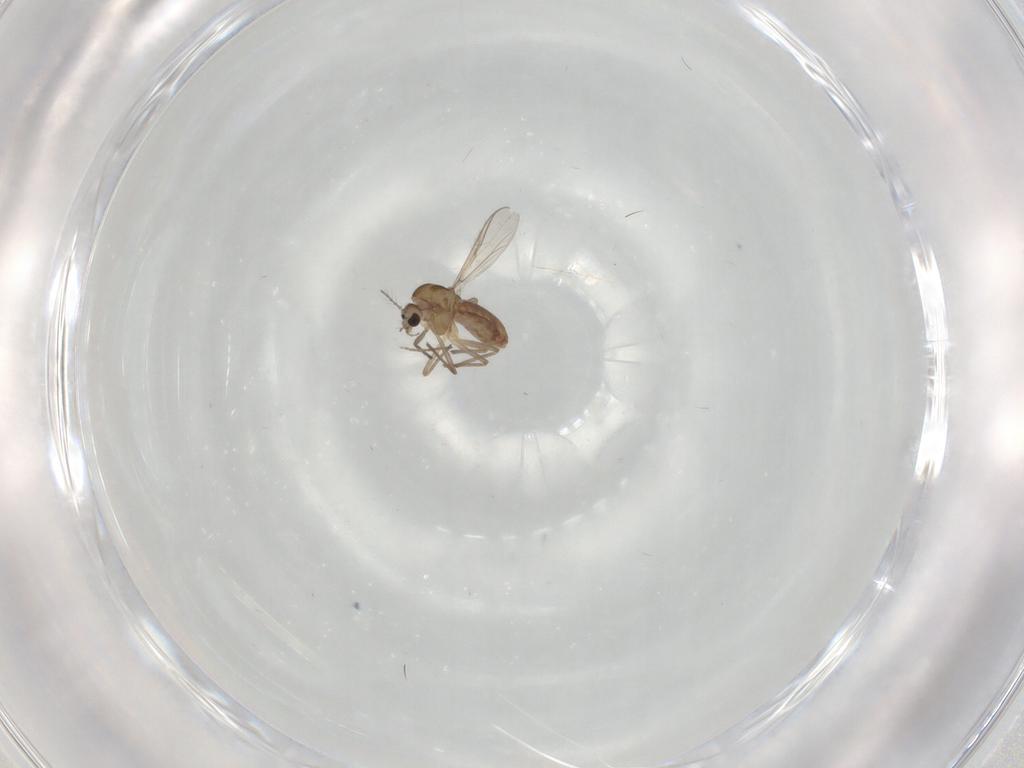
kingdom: Animalia
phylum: Arthropoda
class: Insecta
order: Diptera
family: Chironomidae
